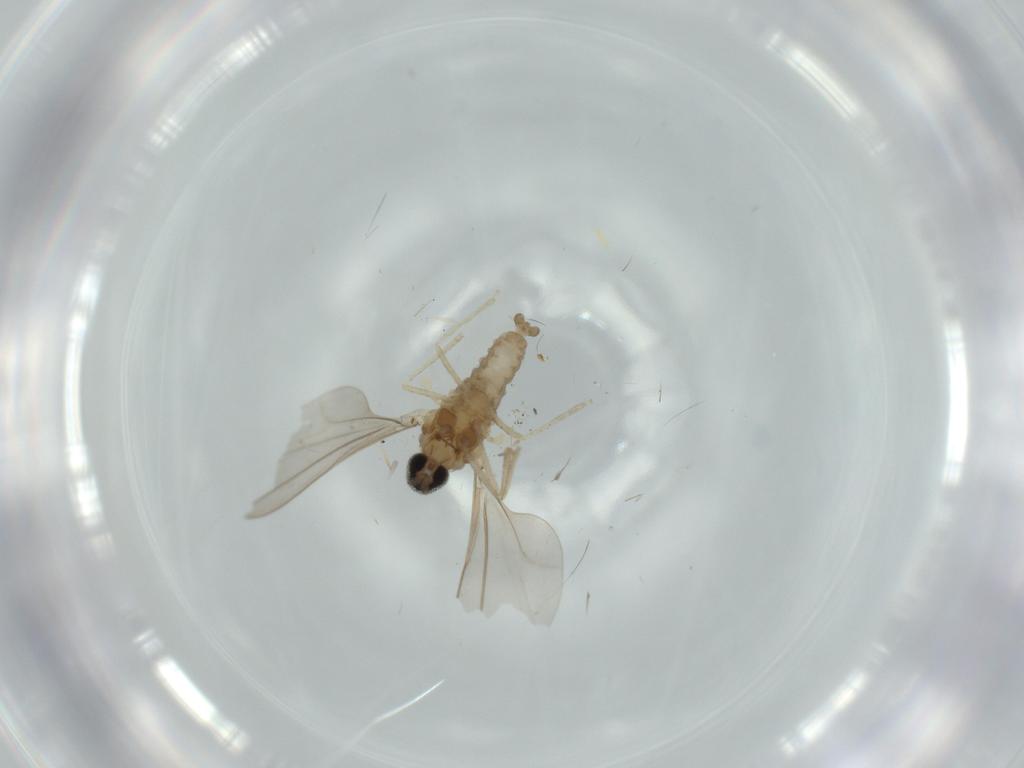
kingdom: Animalia
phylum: Arthropoda
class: Insecta
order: Diptera
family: Cecidomyiidae
